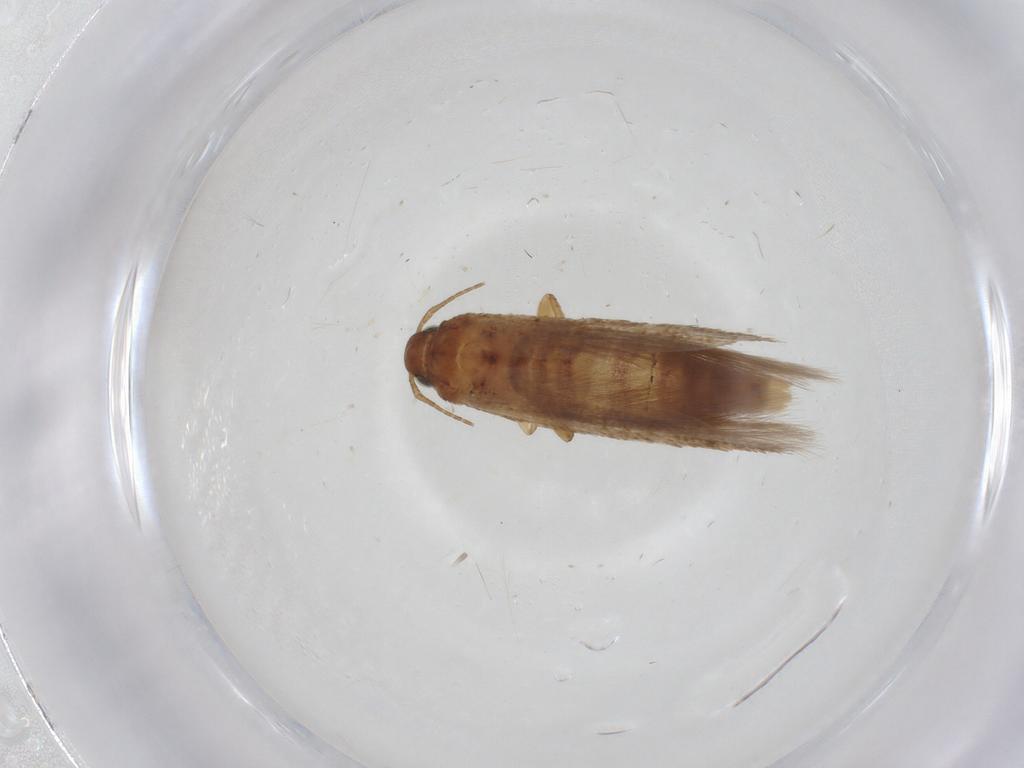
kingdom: Animalia
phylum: Arthropoda
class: Insecta
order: Lepidoptera
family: Gelechiidae
